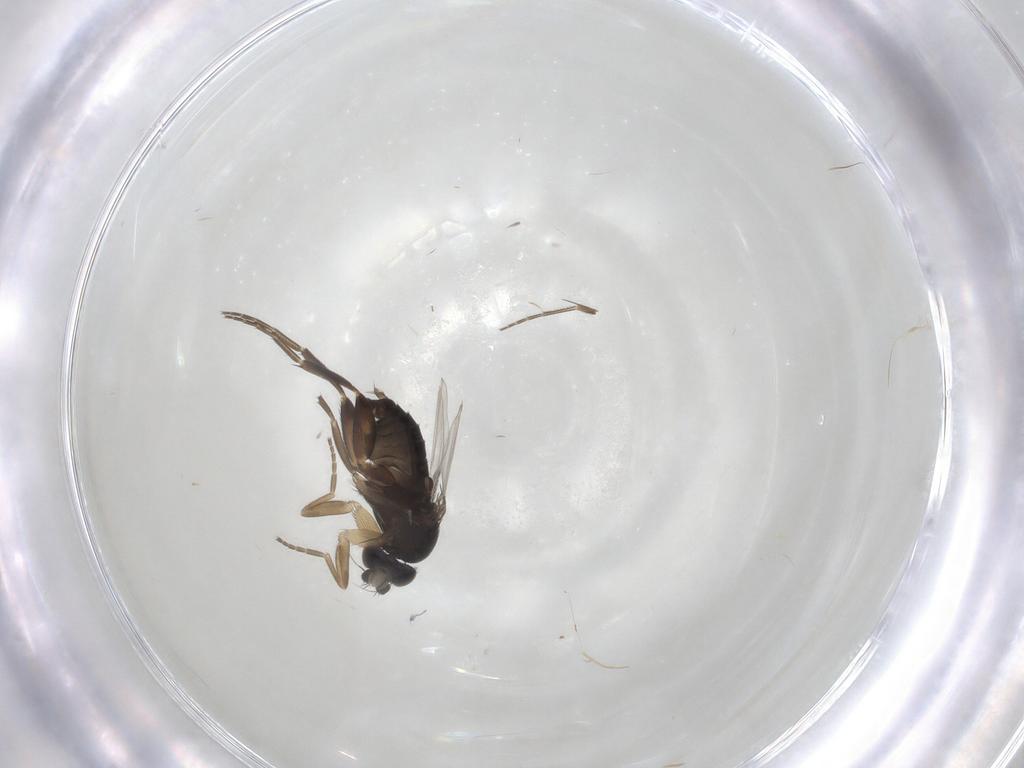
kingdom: Animalia
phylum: Arthropoda
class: Insecta
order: Diptera
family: Phoridae
